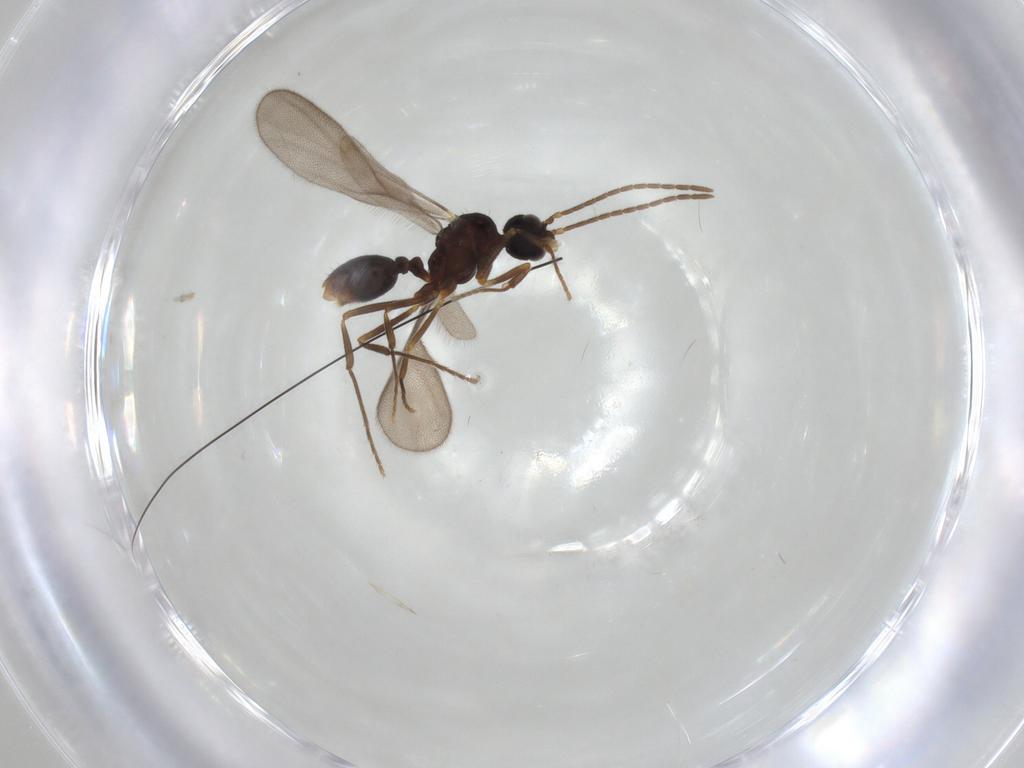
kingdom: Animalia
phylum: Arthropoda
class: Insecta
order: Hymenoptera
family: Formicidae
